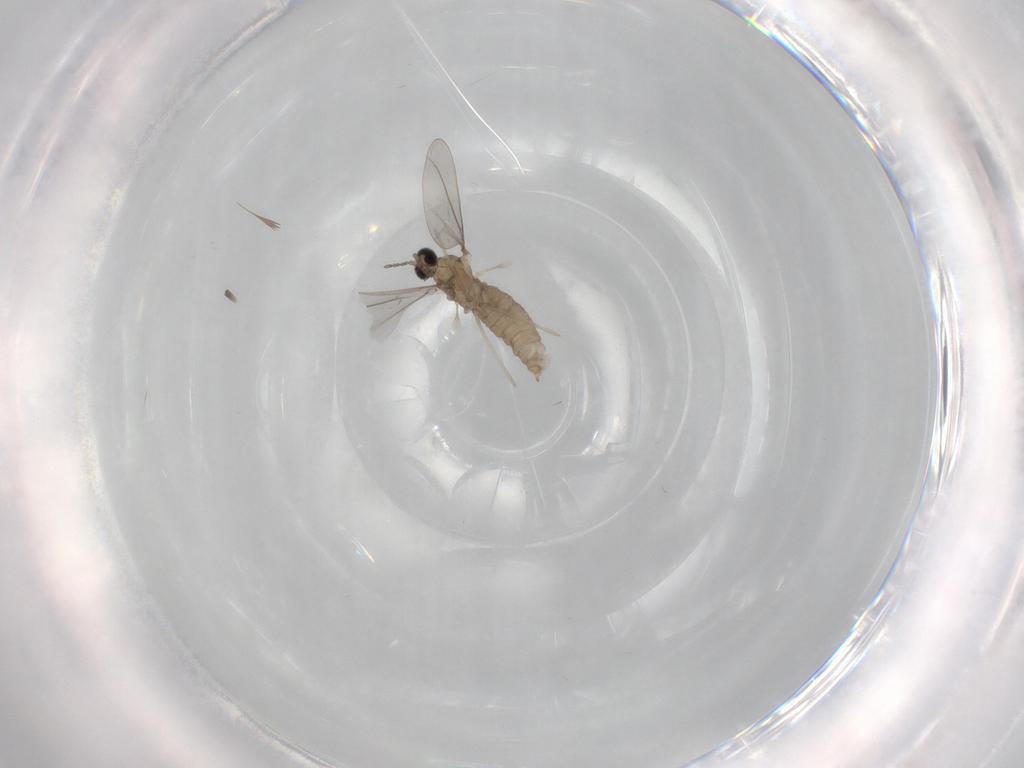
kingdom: Animalia
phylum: Arthropoda
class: Insecta
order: Diptera
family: Cecidomyiidae
